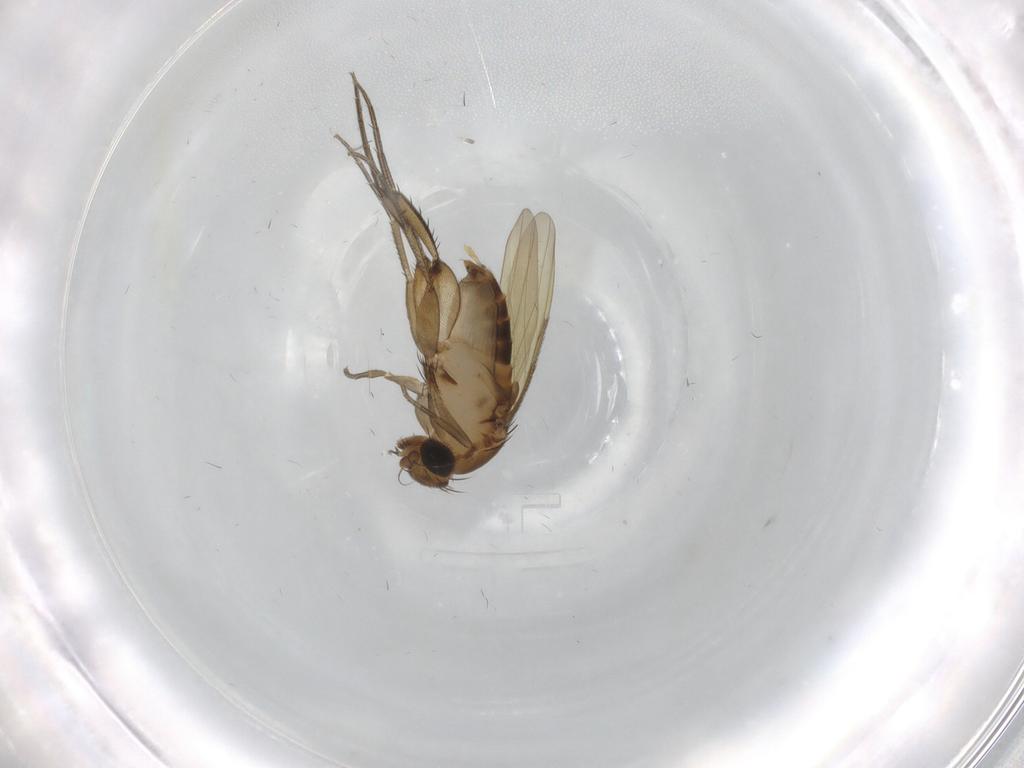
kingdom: Animalia
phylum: Arthropoda
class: Insecta
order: Diptera
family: Phoridae
